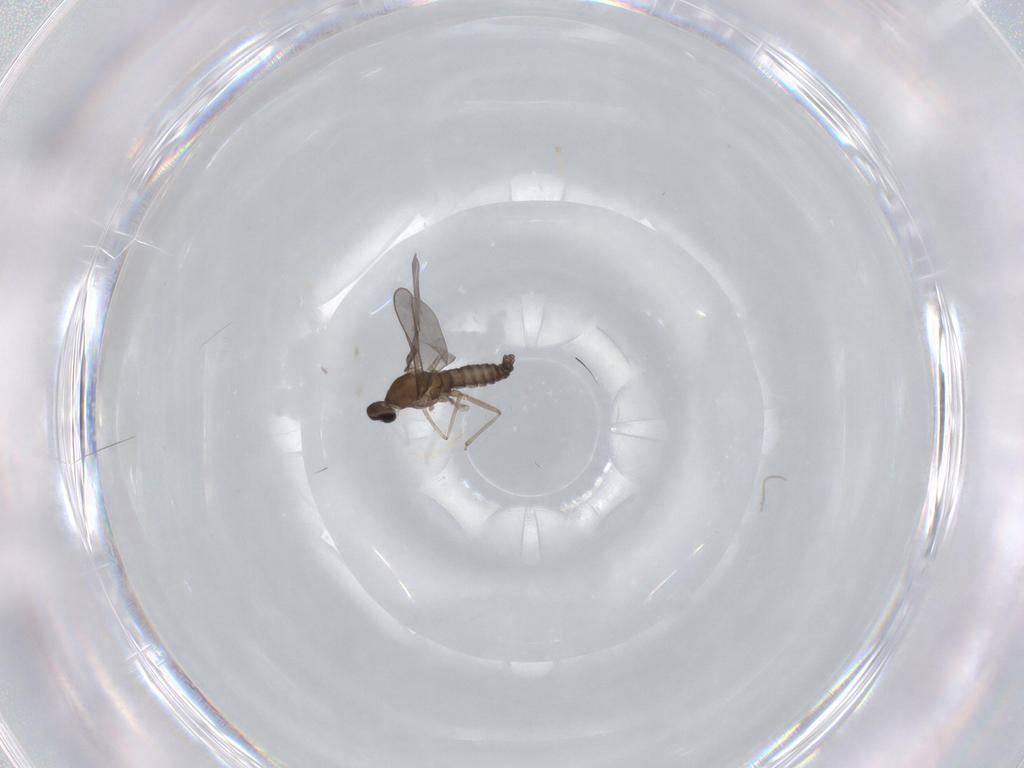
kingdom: Animalia
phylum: Arthropoda
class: Insecta
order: Diptera
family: Cecidomyiidae
